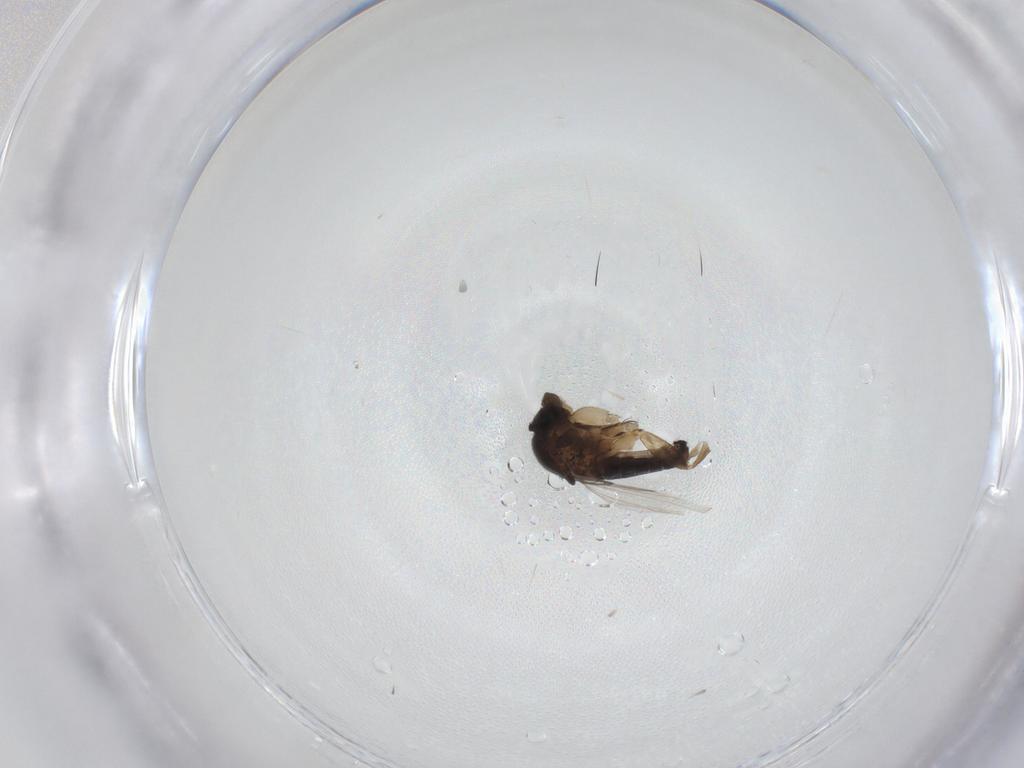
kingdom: Animalia
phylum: Arthropoda
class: Insecta
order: Diptera
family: Phoridae
